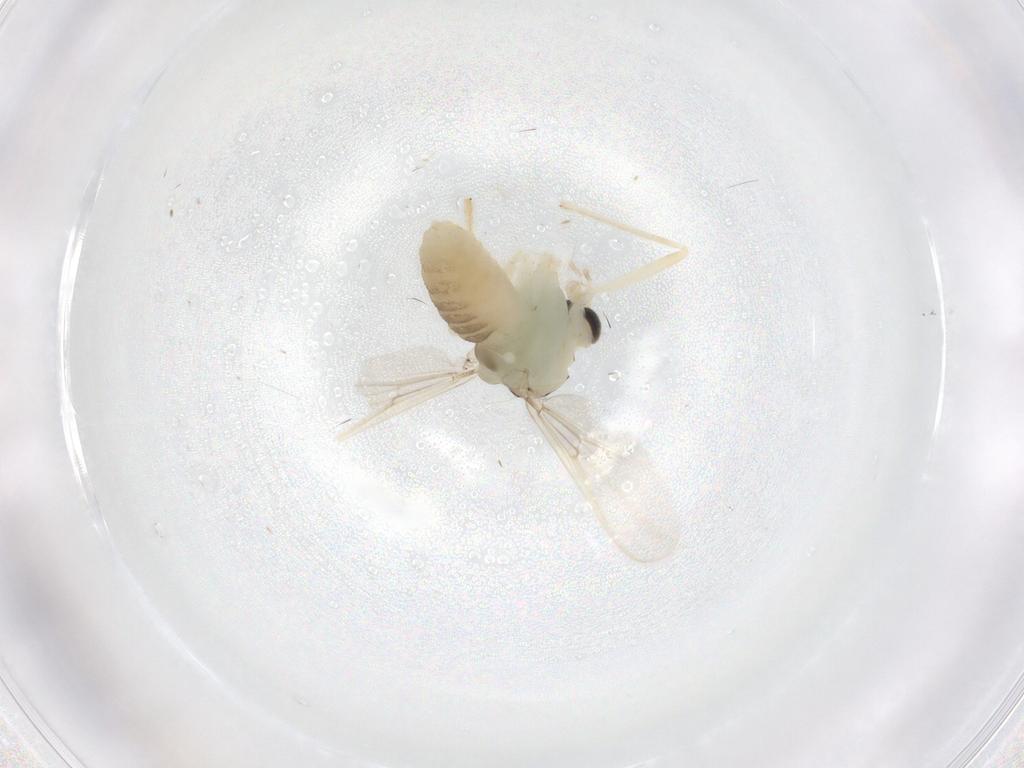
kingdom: Animalia
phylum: Arthropoda
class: Insecta
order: Diptera
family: Chironomidae
